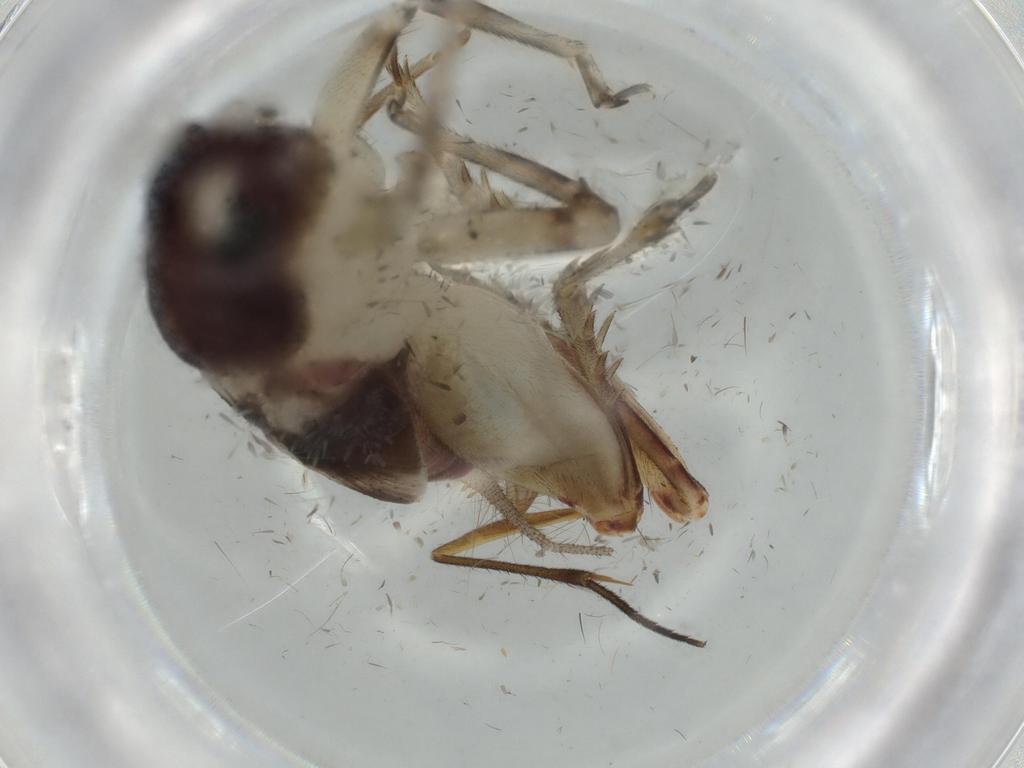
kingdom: Animalia
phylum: Arthropoda
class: Insecta
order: Orthoptera
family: Trigonidiidae
